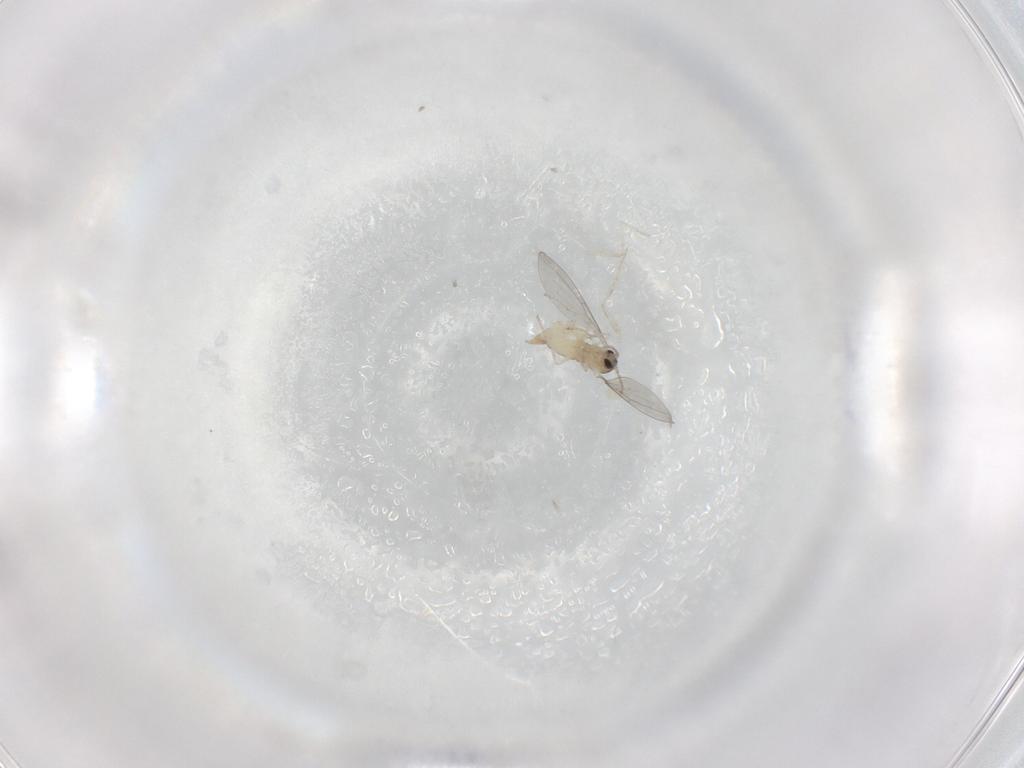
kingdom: Animalia
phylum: Arthropoda
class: Insecta
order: Diptera
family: Cecidomyiidae
